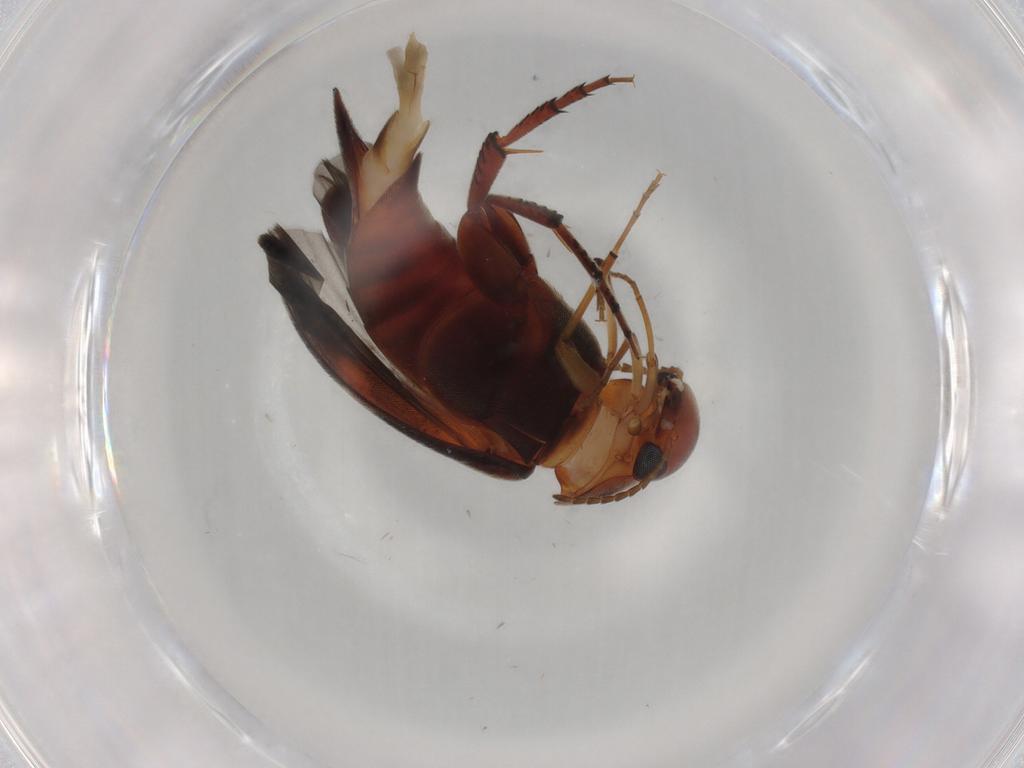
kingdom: Animalia
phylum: Arthropoda
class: Insecta
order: Coleoptera
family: Mordellidae
